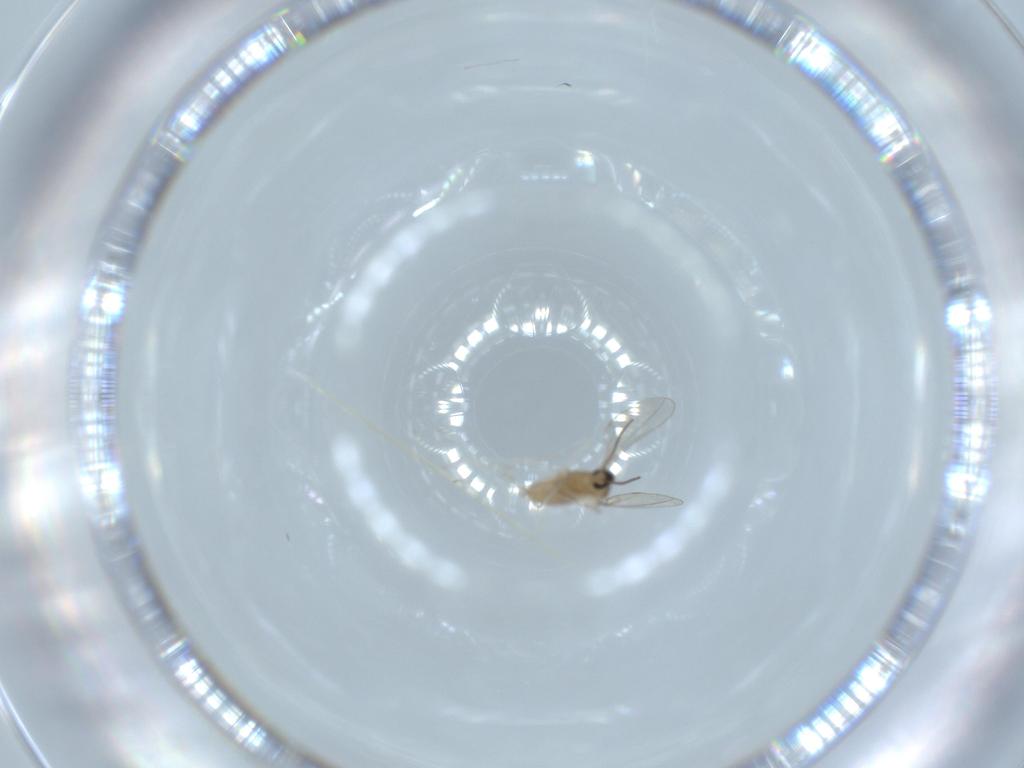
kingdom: Animalia
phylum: Arthropoda
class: Insecta
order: Diptera
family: Cecidomyiidae
